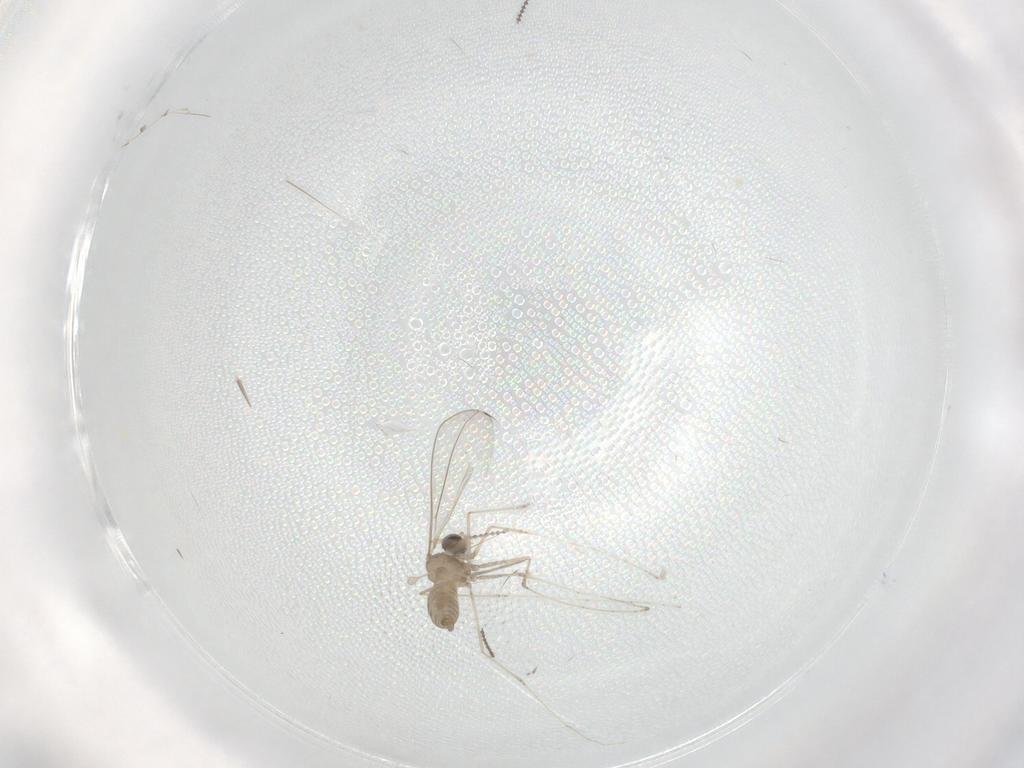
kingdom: Animalia
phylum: Arthropoda
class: Insecta
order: Diptera
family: Cecidomyiidae
